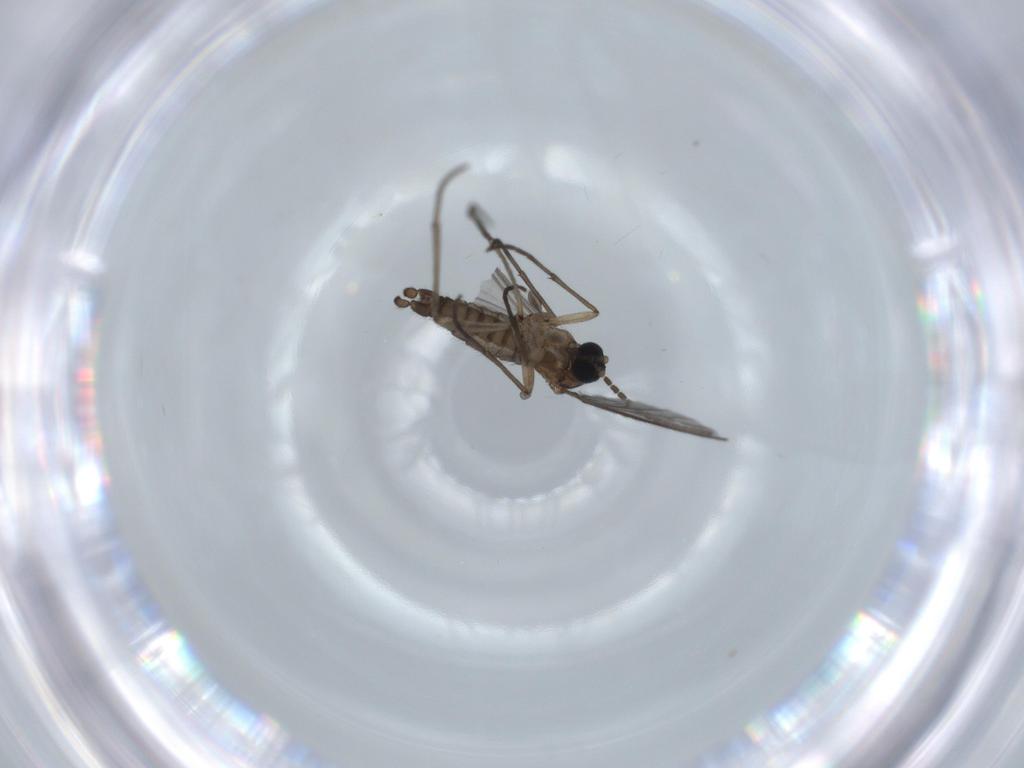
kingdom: Animalia
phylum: Arthropoda
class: Insecta
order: Diptera
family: Sciaridae
